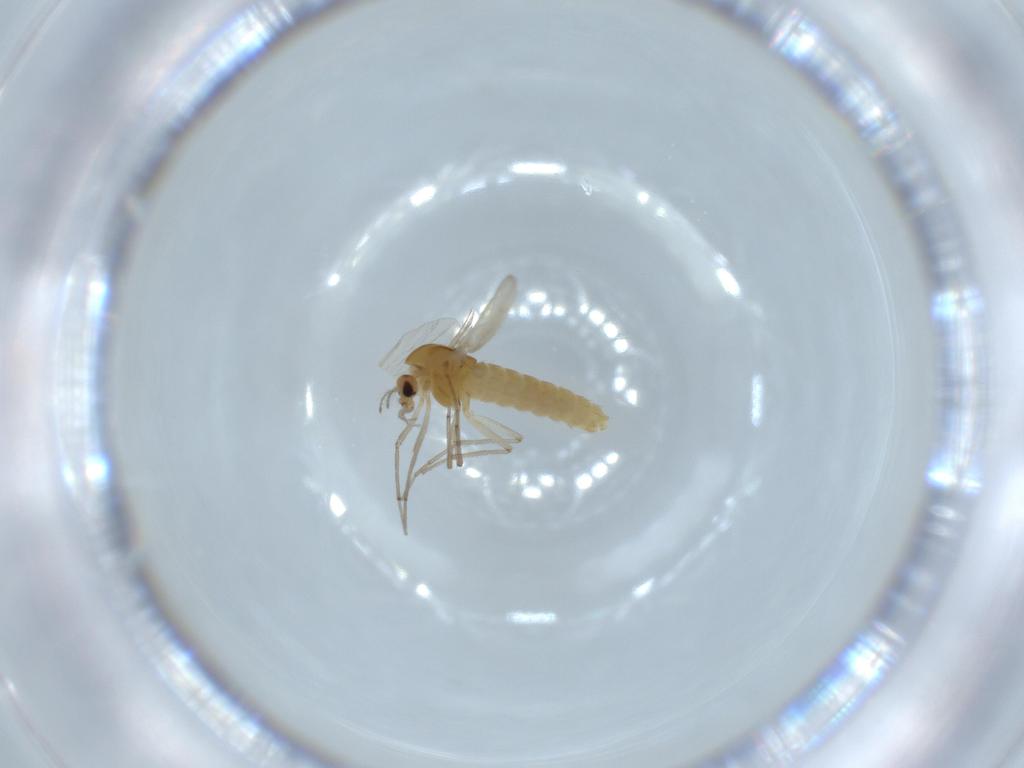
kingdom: Animalia
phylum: Arthropoda
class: Insecta
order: Diptera
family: Chironomidae
